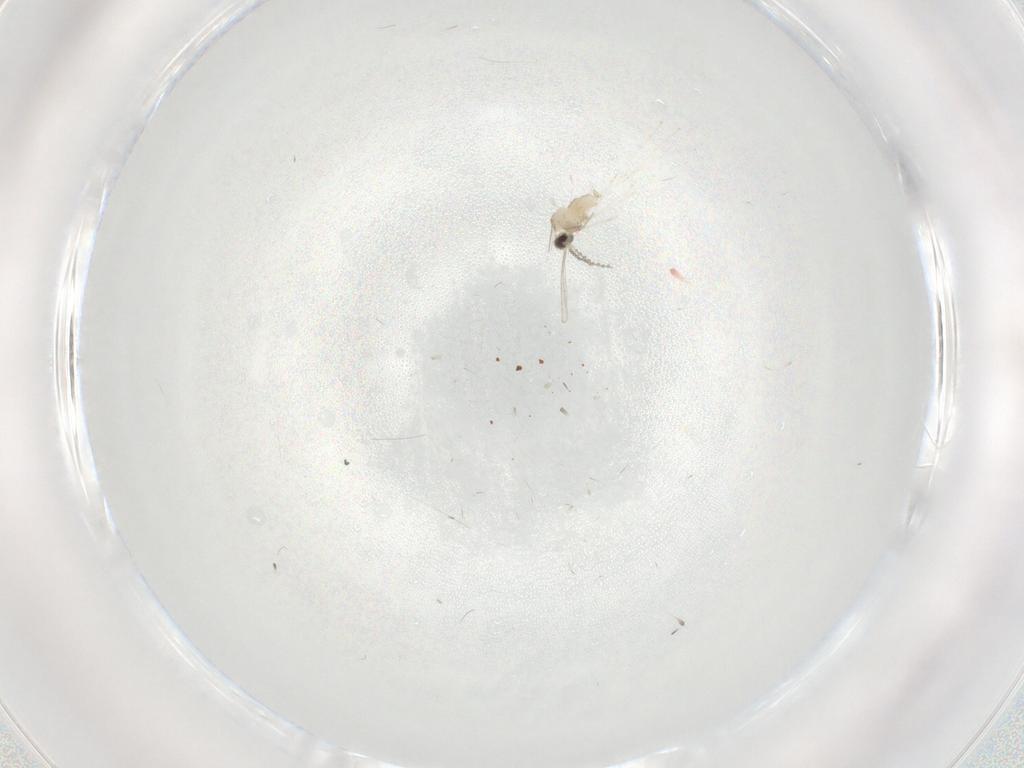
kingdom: Animalia
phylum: Arthropoda
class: Insecta
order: Diptera
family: Cecidomyiidae
